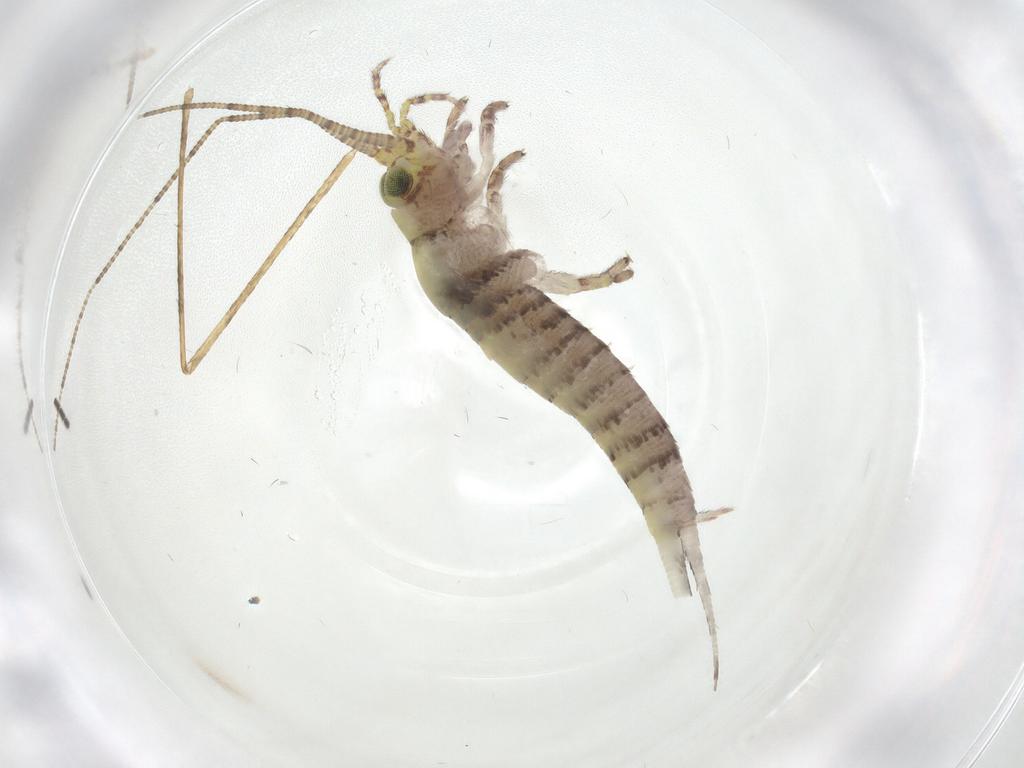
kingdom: Animalia
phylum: Arthropoda
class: Insecta
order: Archaeognatha
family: Machilidae
